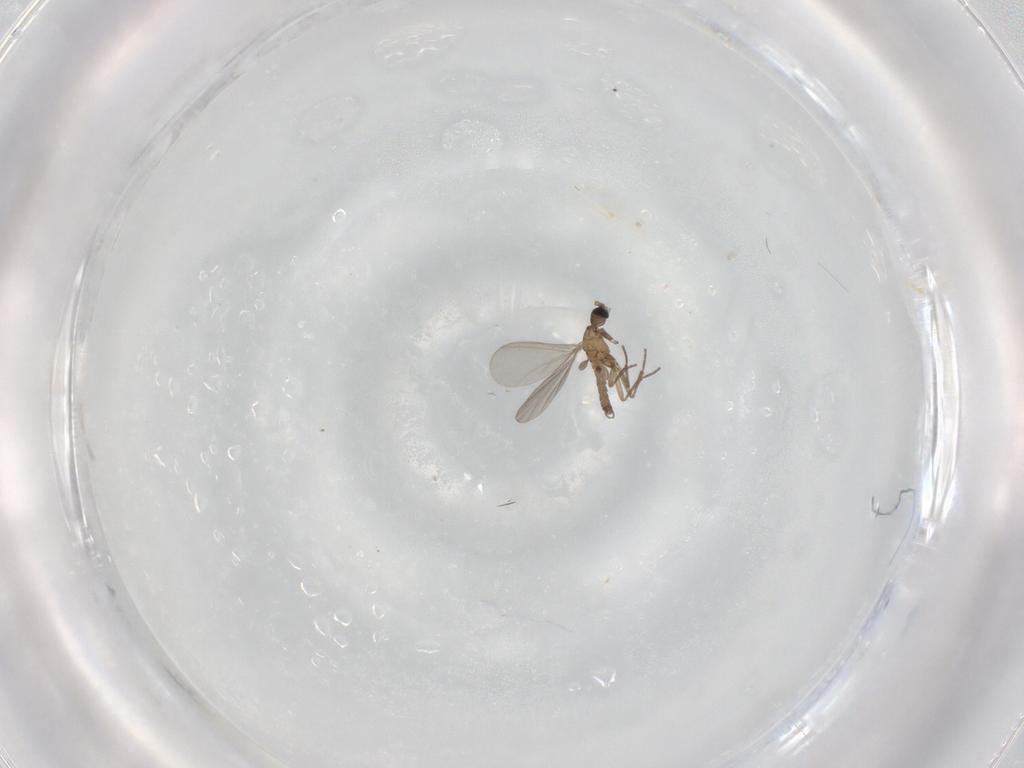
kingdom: Animalia
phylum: Arthropoda
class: Insecta
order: Diptera
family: Sciaridae
